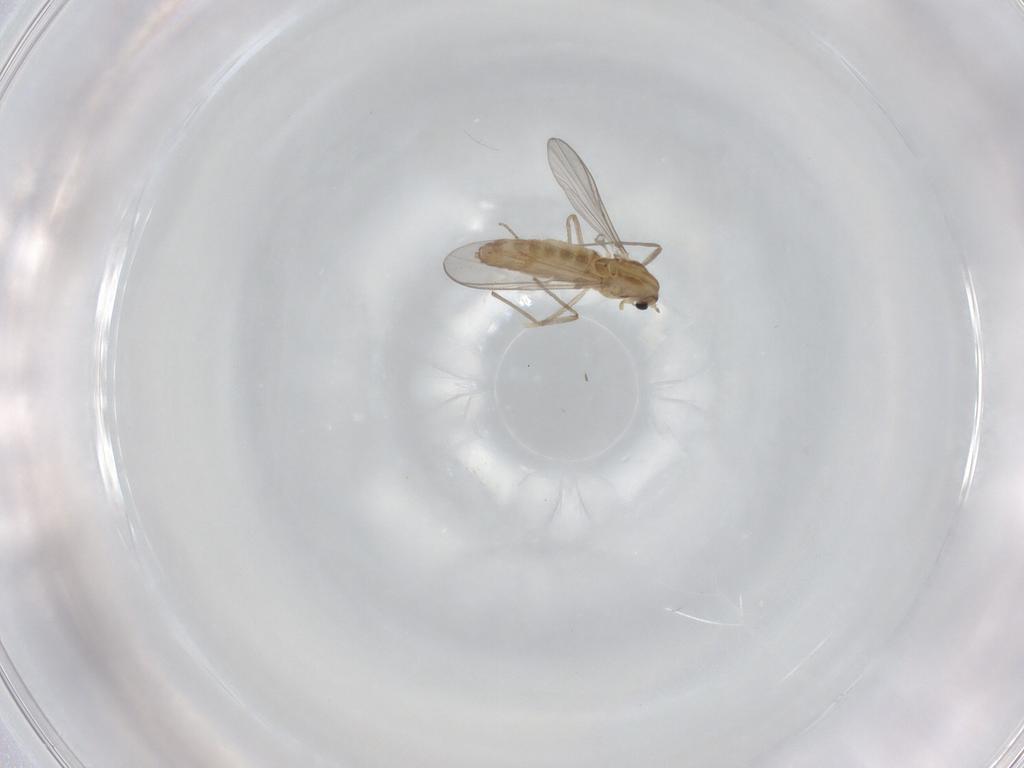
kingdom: Animalia
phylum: Arthropoda
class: Insecta
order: Diptera
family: Chironomidae
